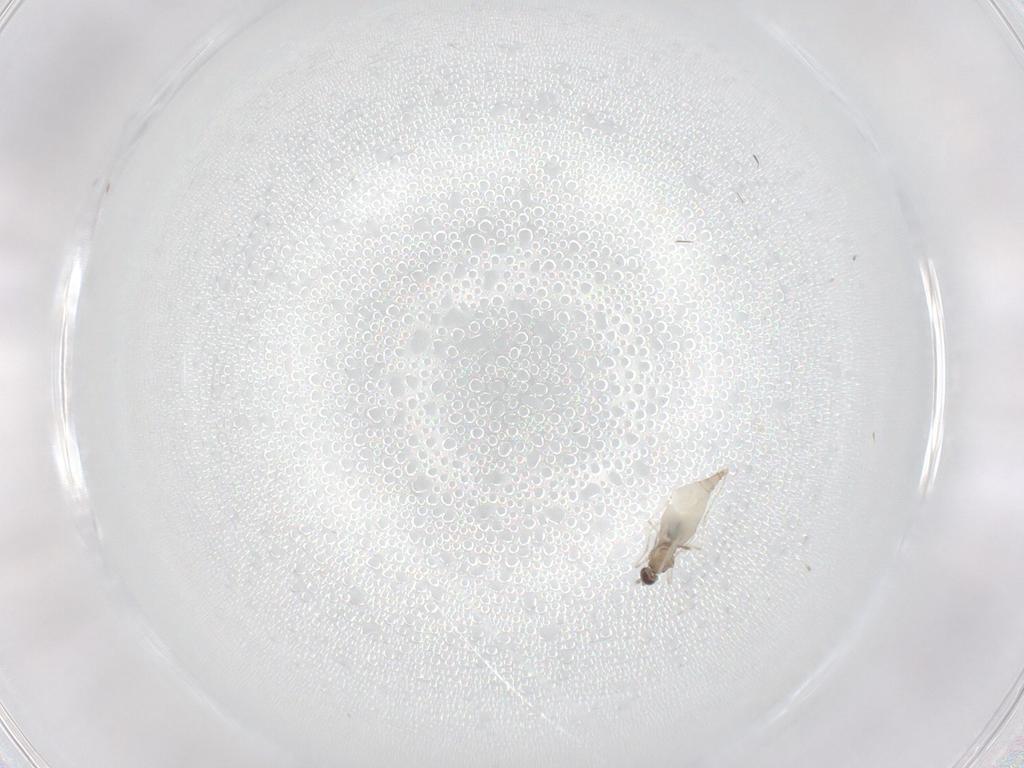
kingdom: Animalia
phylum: Arthropoda
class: Insecta
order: Diptera
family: Cecidomyiidae
